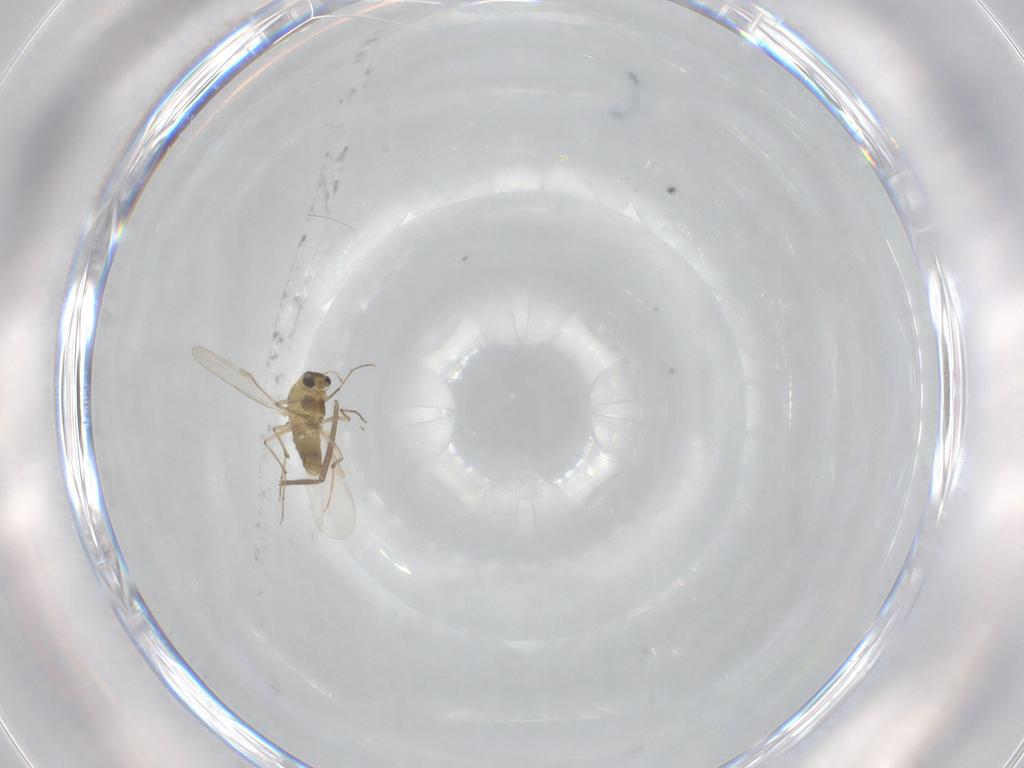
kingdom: Animalia
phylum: Arthropoda
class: Insecta
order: Diptera
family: Chironomidae
